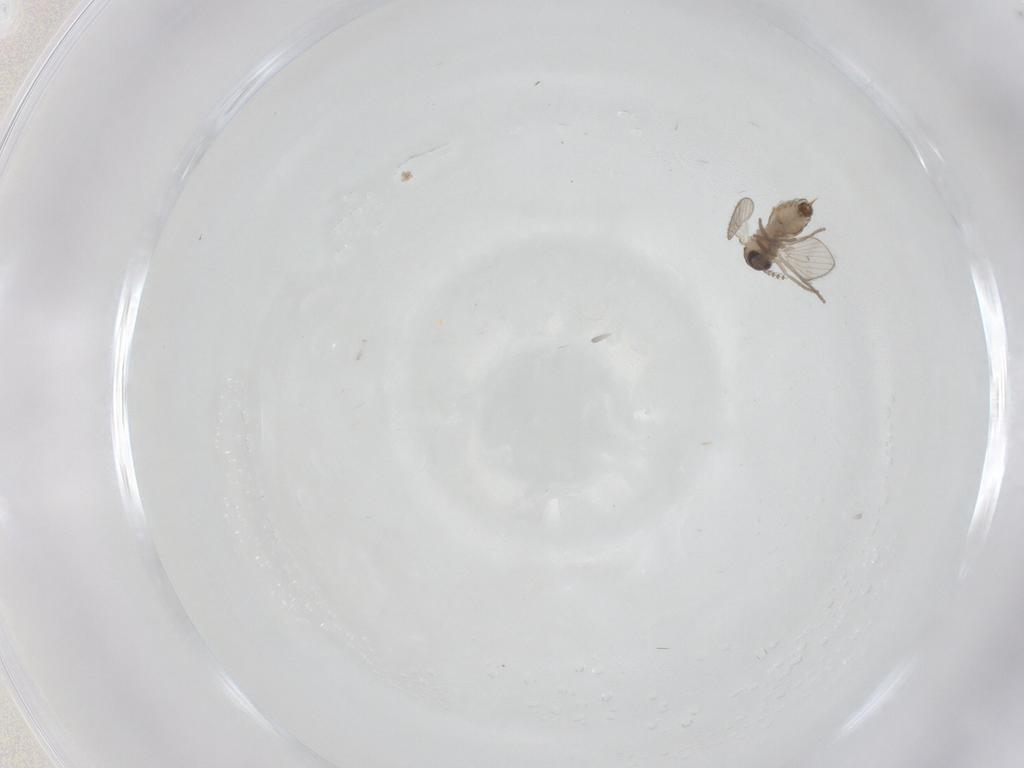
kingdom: Animalia
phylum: Arthropoda
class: Insecta
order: Diptera
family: Psychodidae
